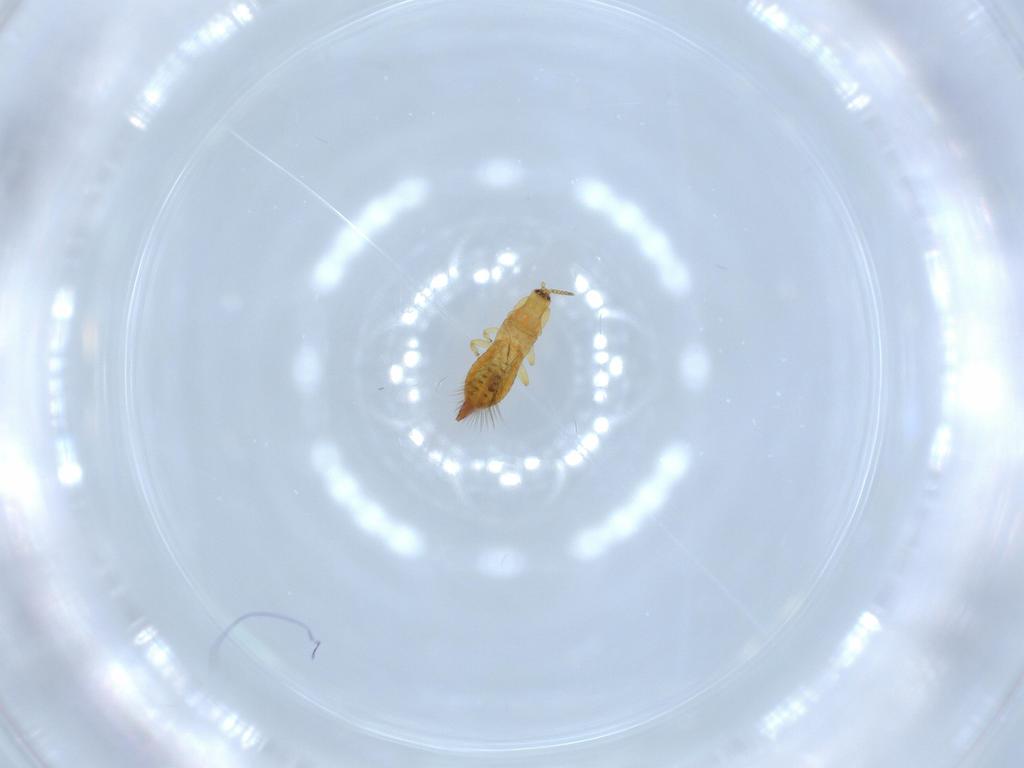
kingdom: Animalia
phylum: Arthropoda
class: Insecta
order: Thysanoptera
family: Phlaeothripidae
